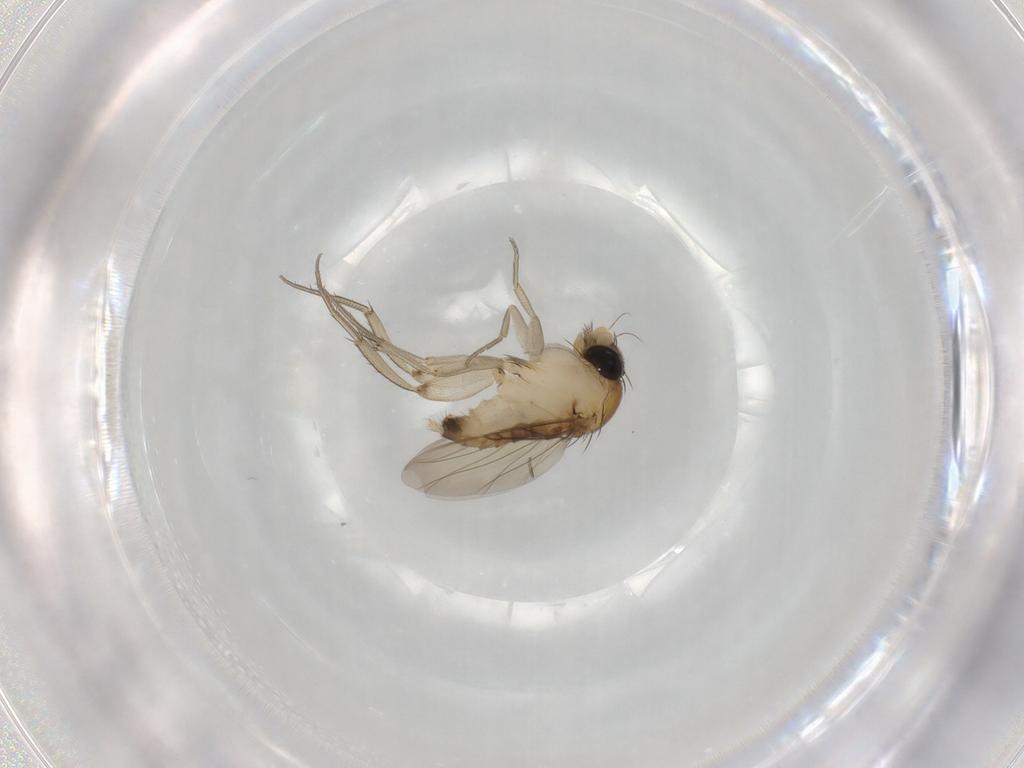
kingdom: Animalia
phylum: Arthropoda
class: Insecta
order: Diptera
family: Phoridae
